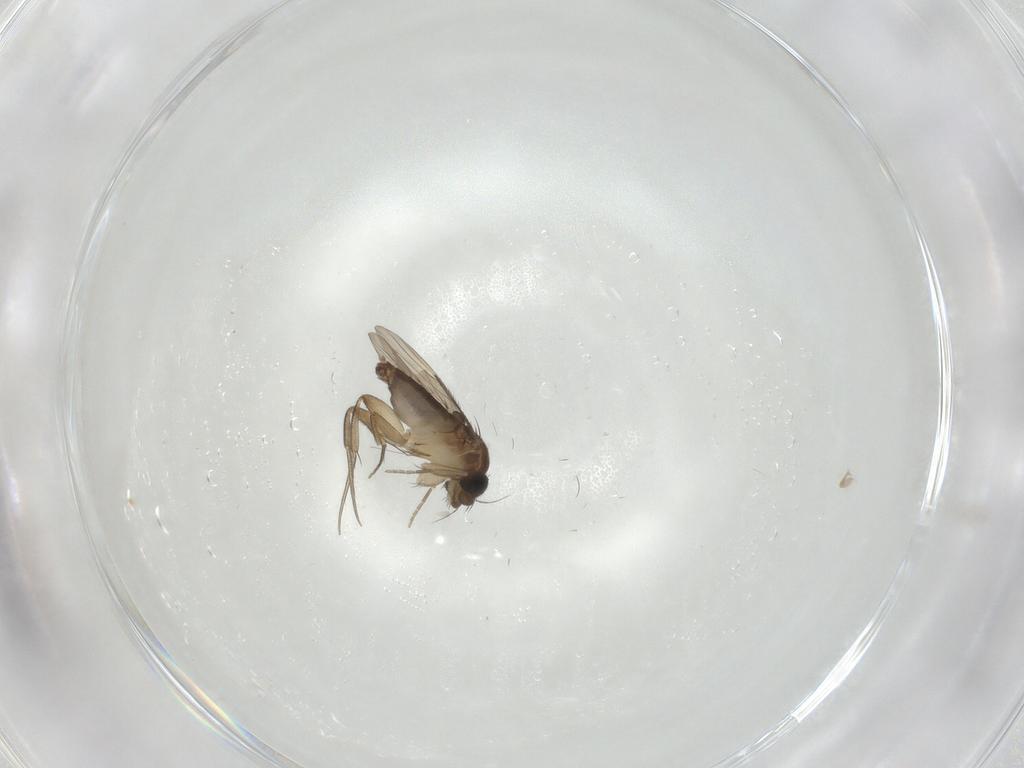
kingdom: Animalia
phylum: Arthropoda
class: Insecta
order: Diptera
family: Phoridae
